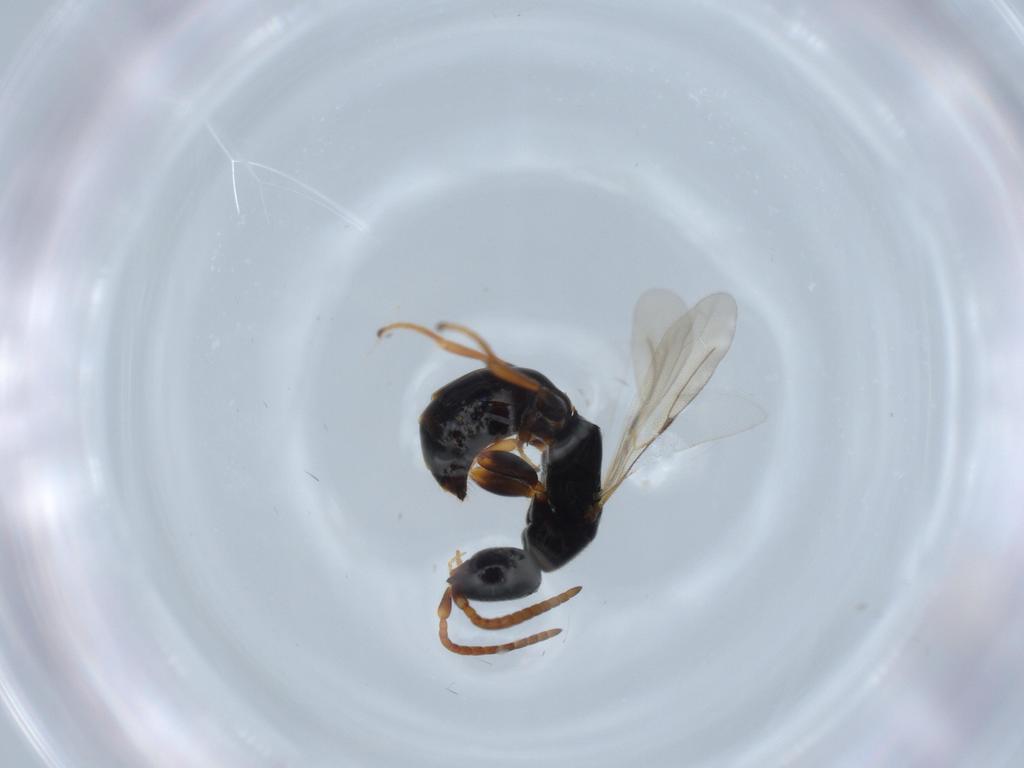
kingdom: Animalia
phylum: Arthropoda
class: Insecta
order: Hymenoptera
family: Bethylidae
